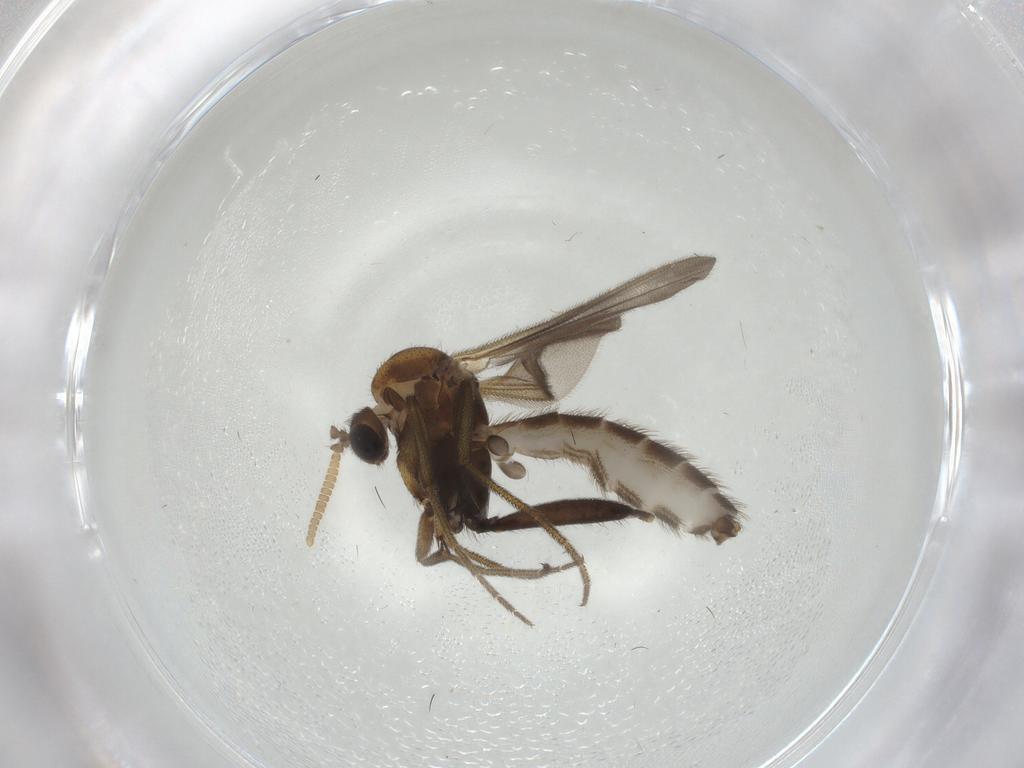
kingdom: Animalia
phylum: Arthropoda
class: Insecta
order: Diptera
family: Mycetophilidae
